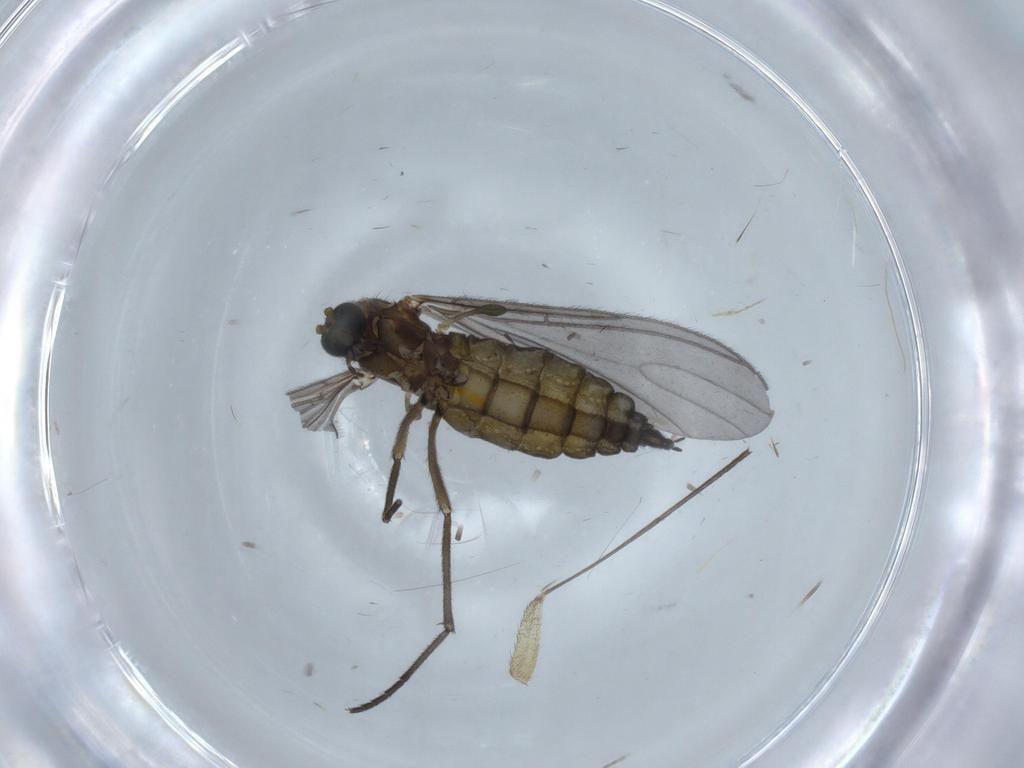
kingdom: Animalia
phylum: Arthropoda
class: Insecta
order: Diptera
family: Sciaridae
